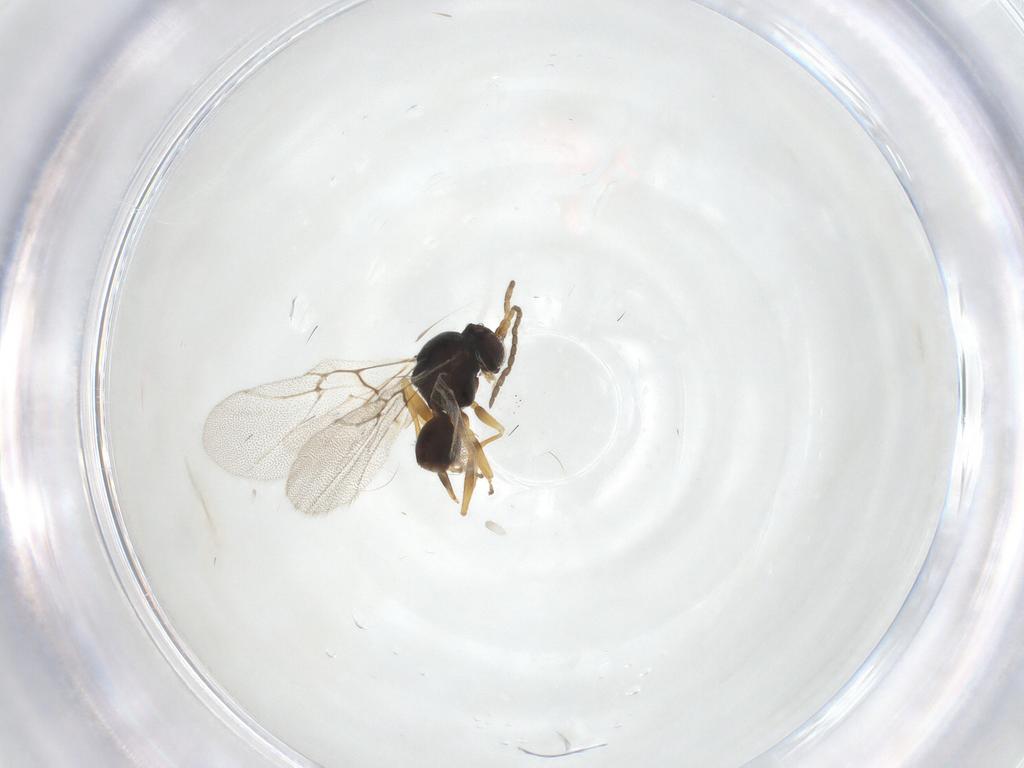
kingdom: Animalia
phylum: Arthropoda
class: Insecta
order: Hymenoptera
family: Cynipidae
